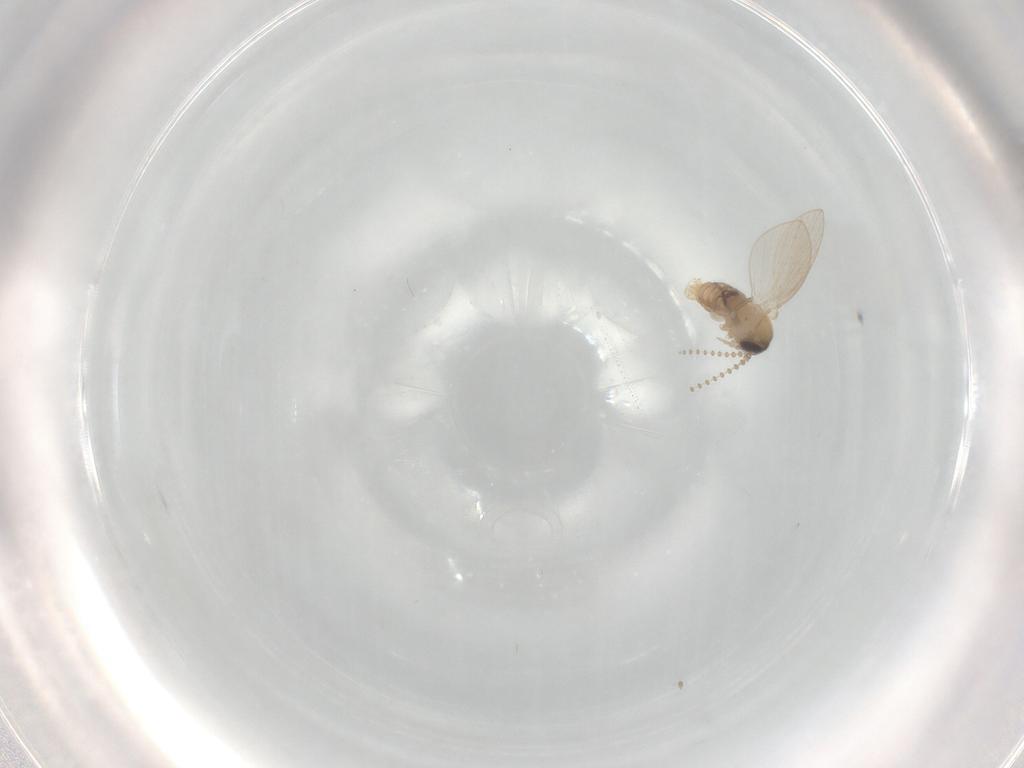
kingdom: Animalia
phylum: Arthropoda
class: Insecta
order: Diptera
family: Psychodidae
